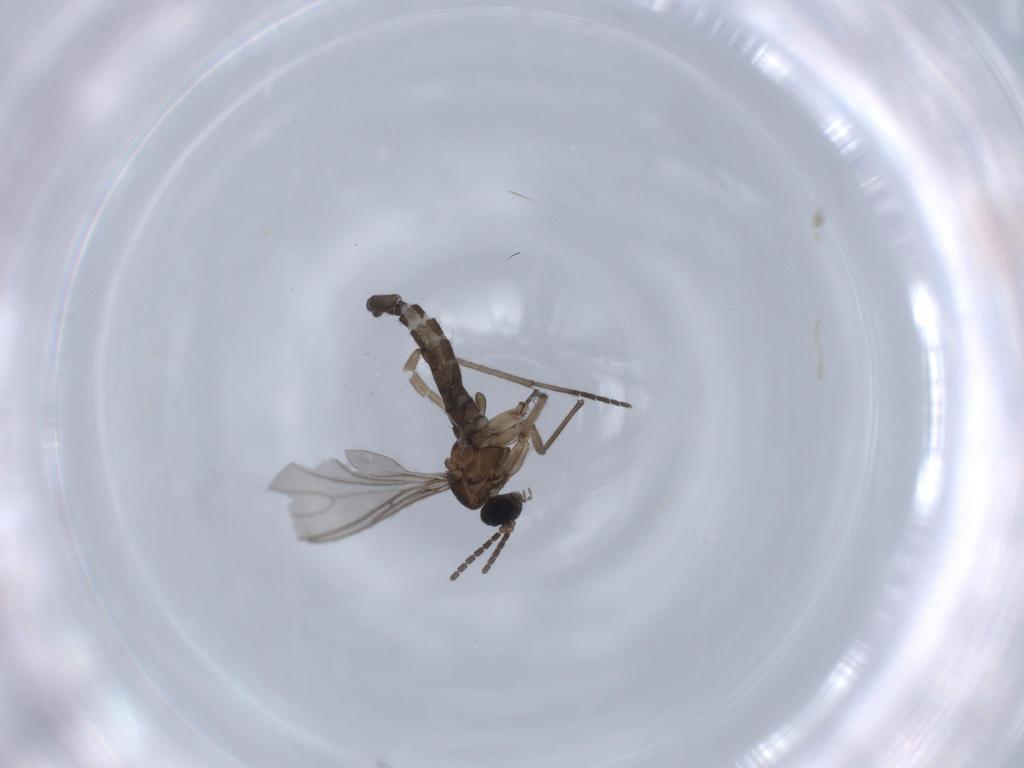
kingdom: Animalia
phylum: Arthropoda
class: Insecta
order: Diptera
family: Sciaridae
